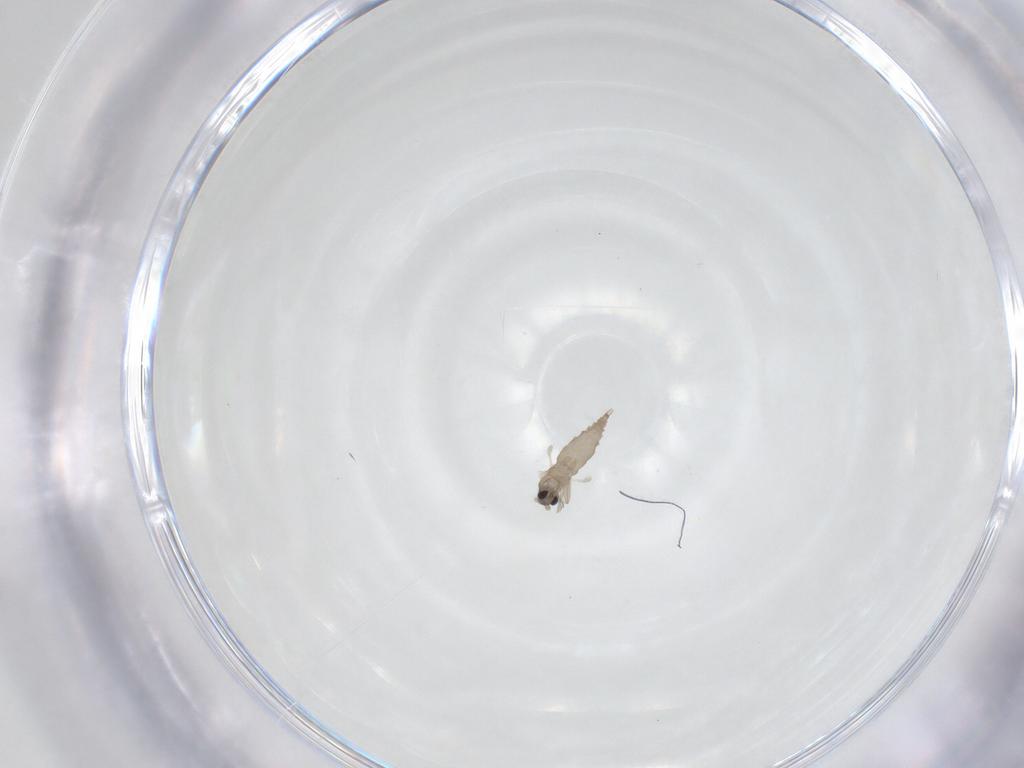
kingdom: Animalia
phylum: Arthropoda
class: Insecta
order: Diptera
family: Cecidomyiidae
